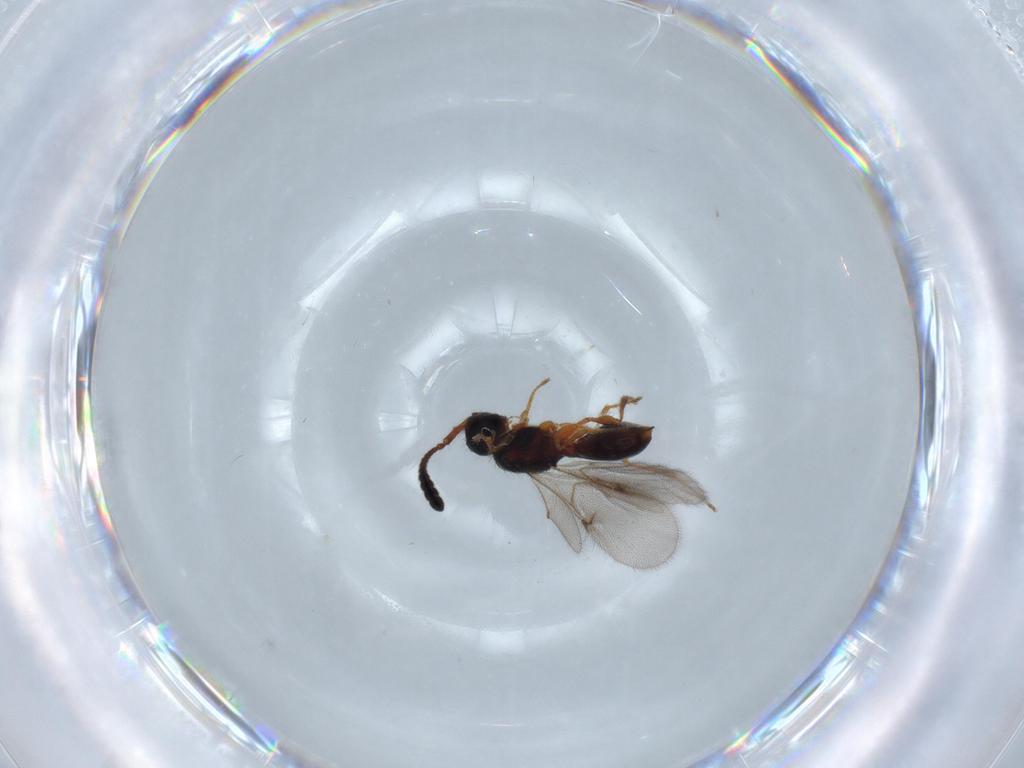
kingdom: Animalia
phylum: Arthropoda
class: Insecta
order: Hymenoptera
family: Diapriidae
